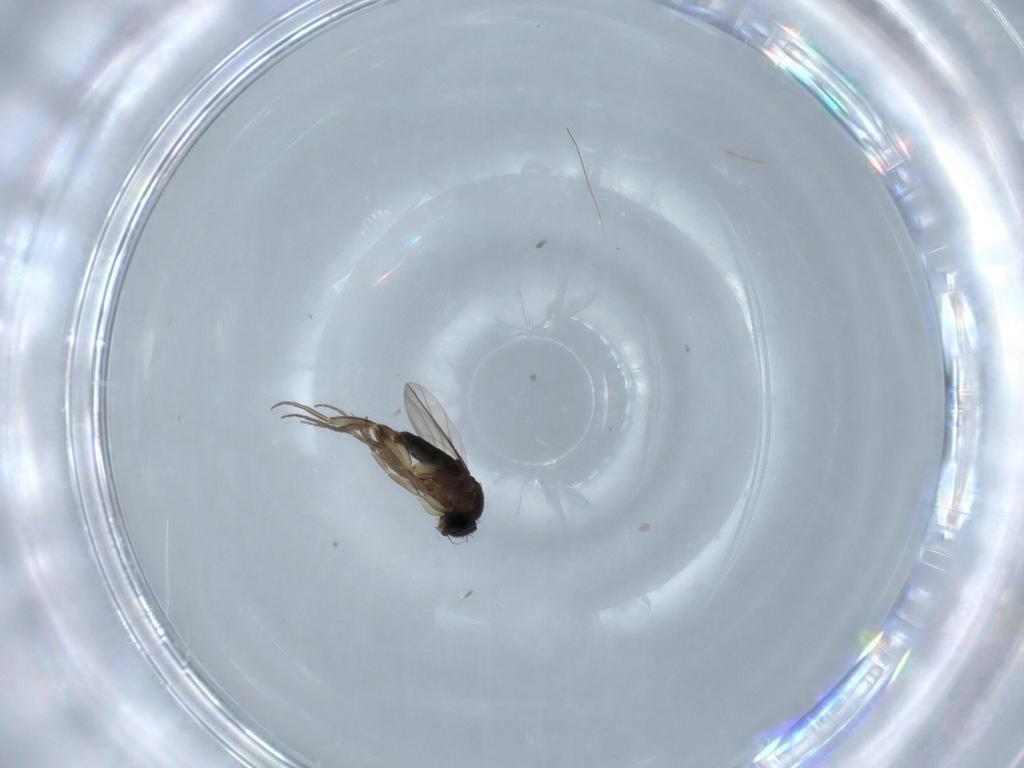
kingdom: Animalia
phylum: Arthropoda
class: Insecta
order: Diptera
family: Phoridae
